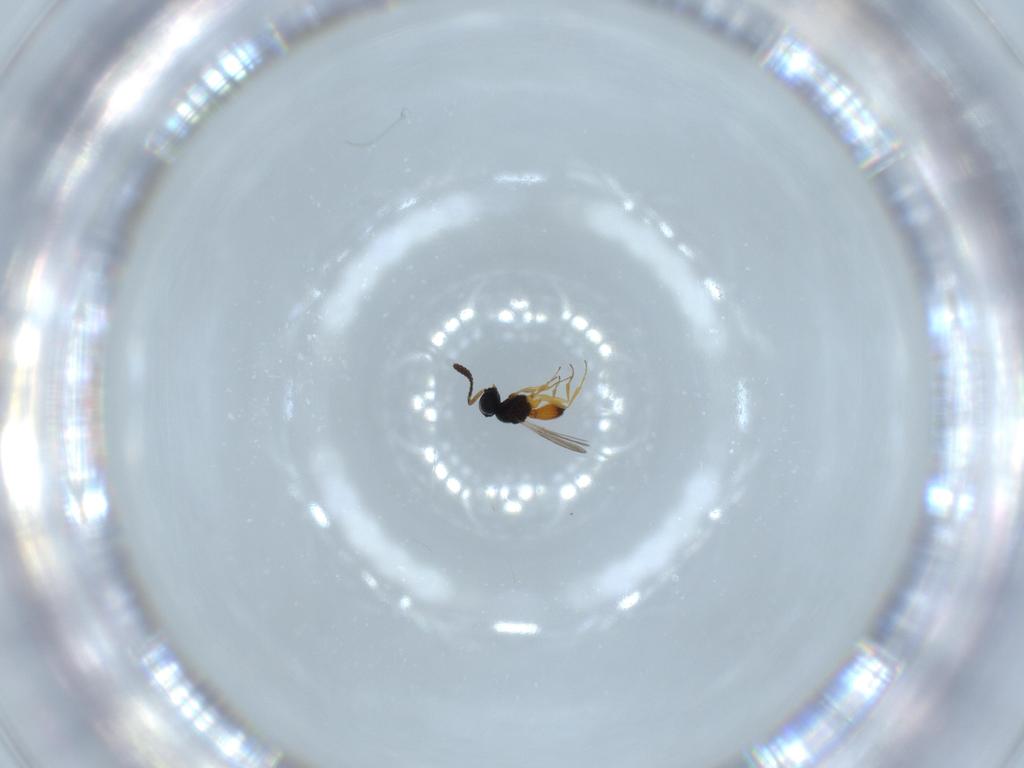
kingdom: Animalia
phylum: Arthropoda
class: Insecta
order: Hymenoptera
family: Scelionidae
